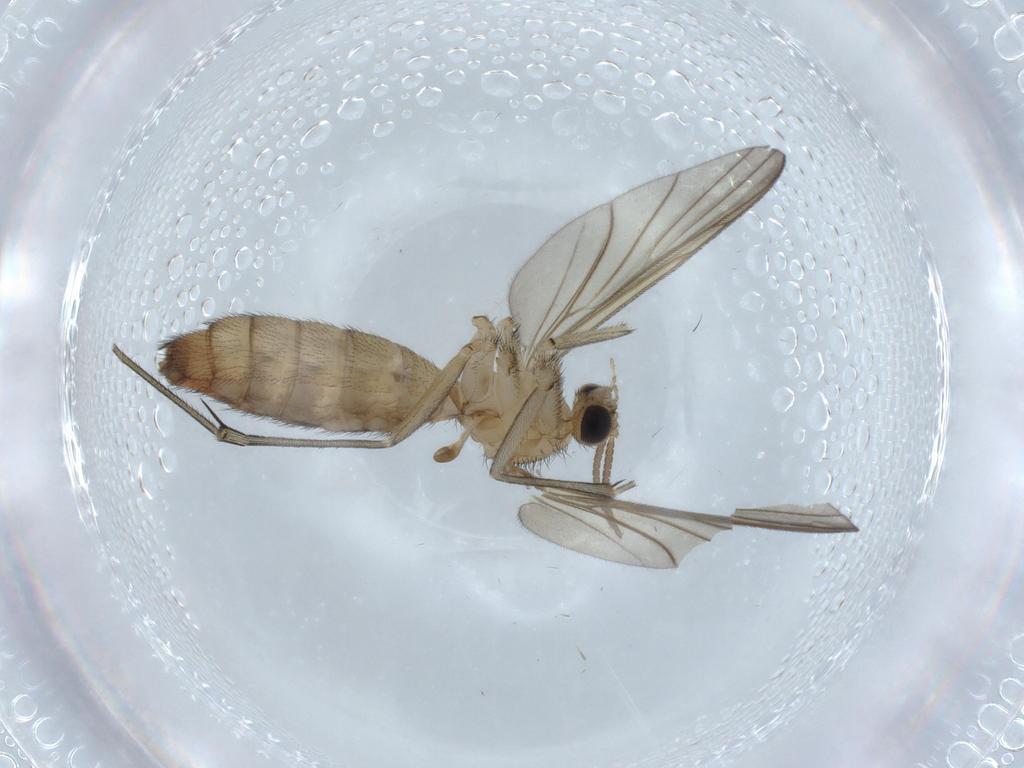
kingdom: Animalia
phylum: Arthropoda
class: Insecta
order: Diptera
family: Keroplatidae
